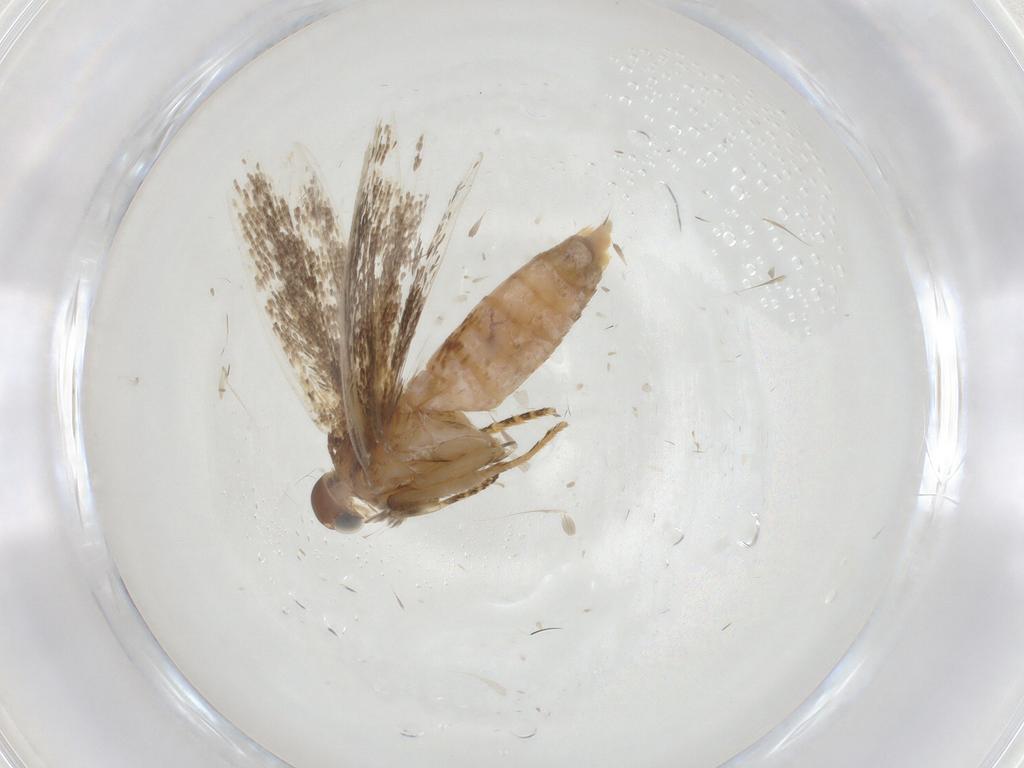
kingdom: Animalia
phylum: Arthropoda
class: Insecta
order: Lepidoptera
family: Gelechiidae
